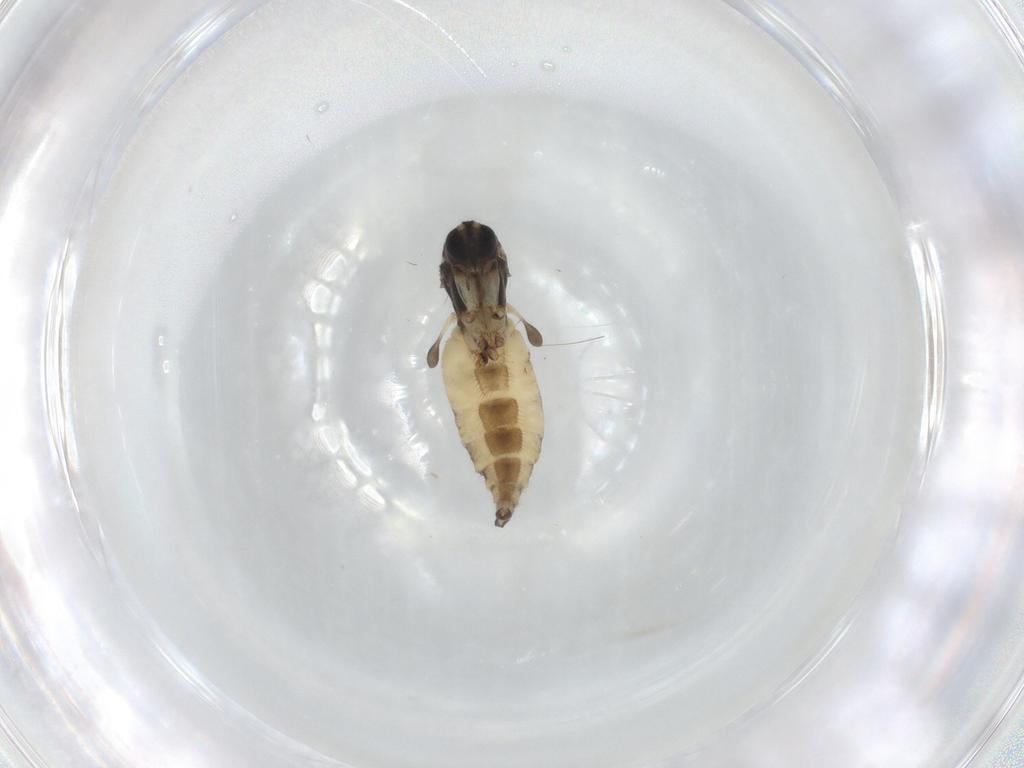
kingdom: Animalia
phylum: Arthropoda
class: Insecta
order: Diptera
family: Sciaridae
